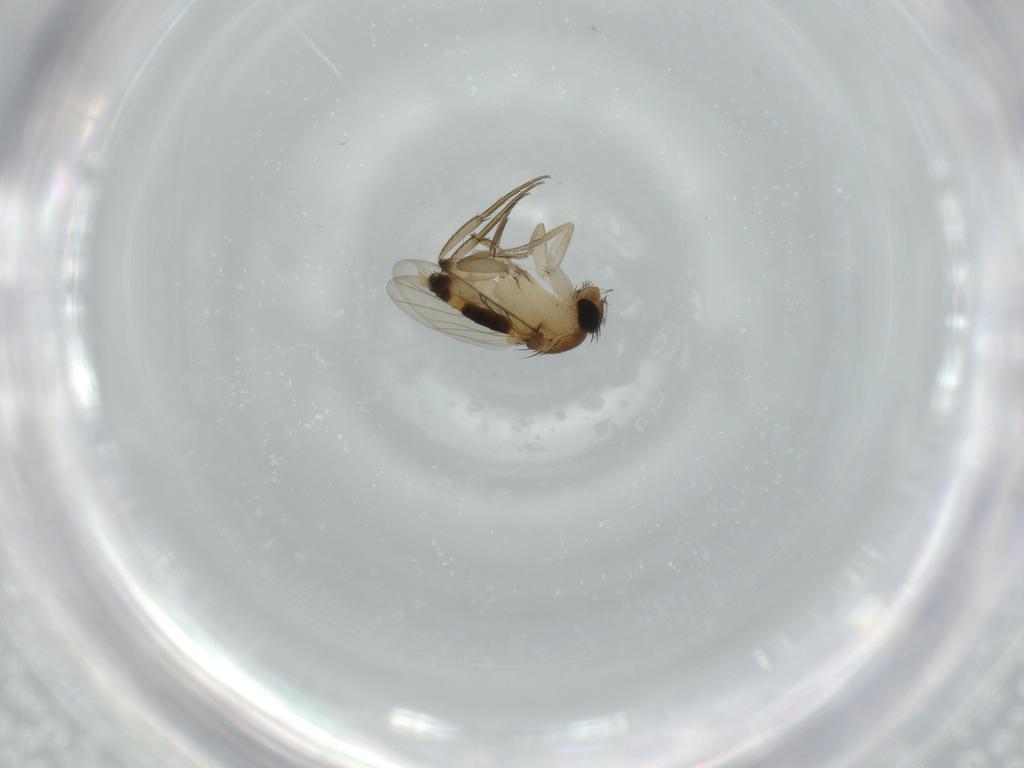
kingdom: Animalia
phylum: Arthropoda
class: Insecta
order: Diptera
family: Phoridae
